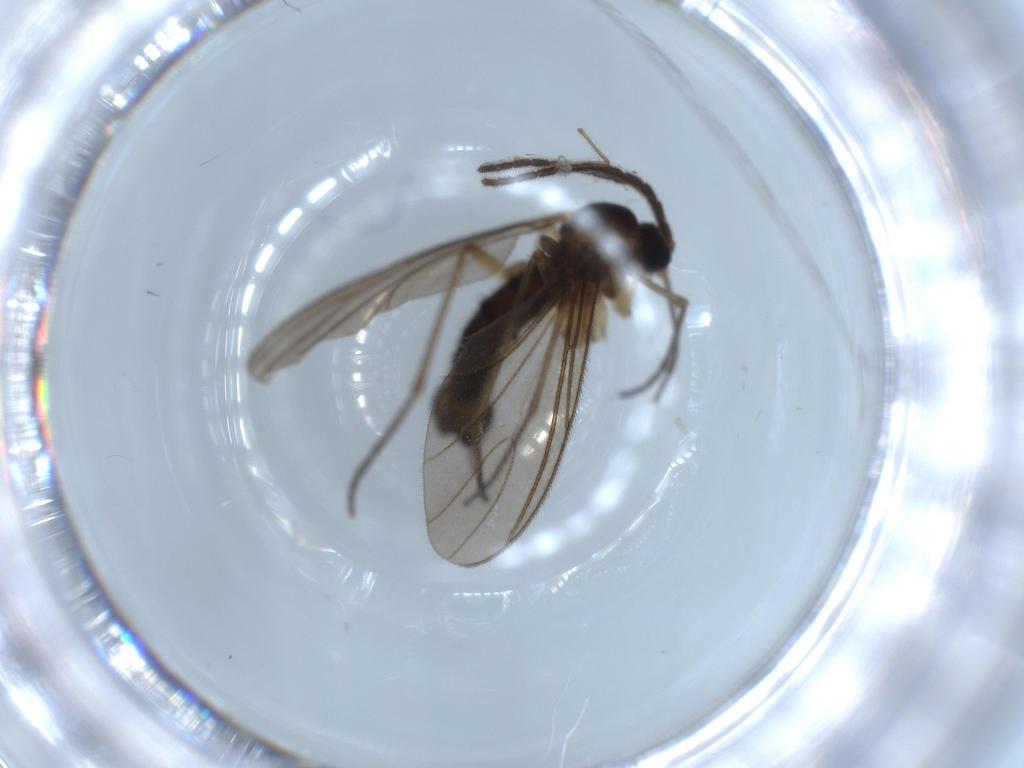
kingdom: Animalia
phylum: Arthropoda
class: Insecta
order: Diptera
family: Sciaridae
